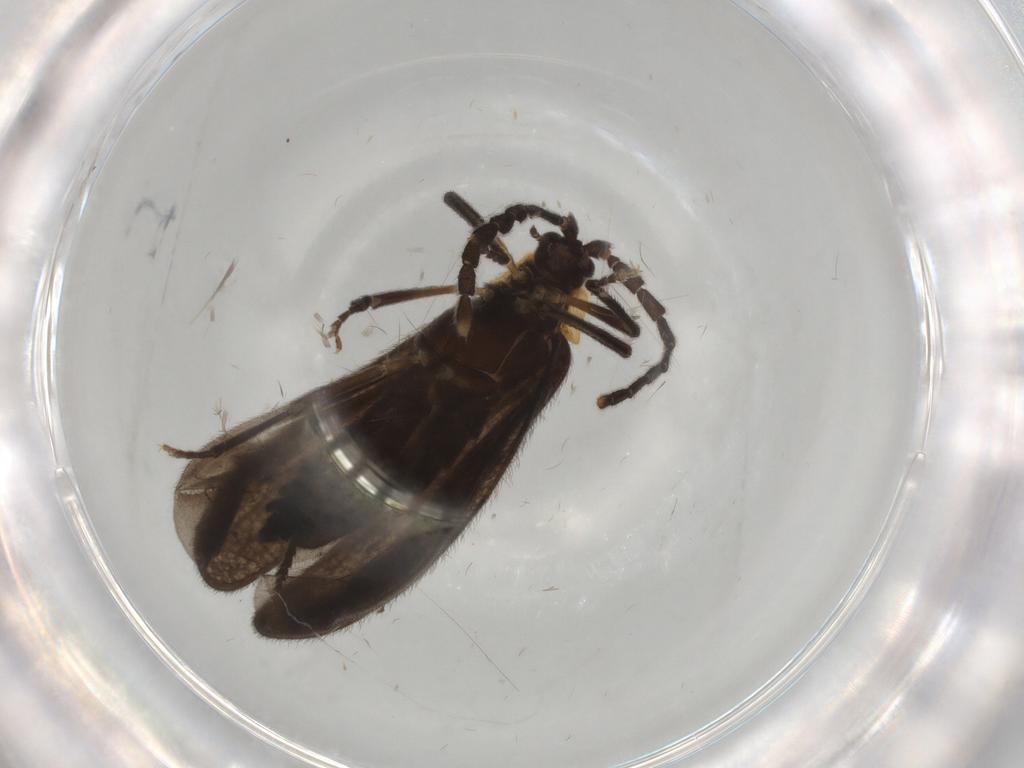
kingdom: Animalia
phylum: Arthropoda
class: Insecta
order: Coleoptera
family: Lycidae
